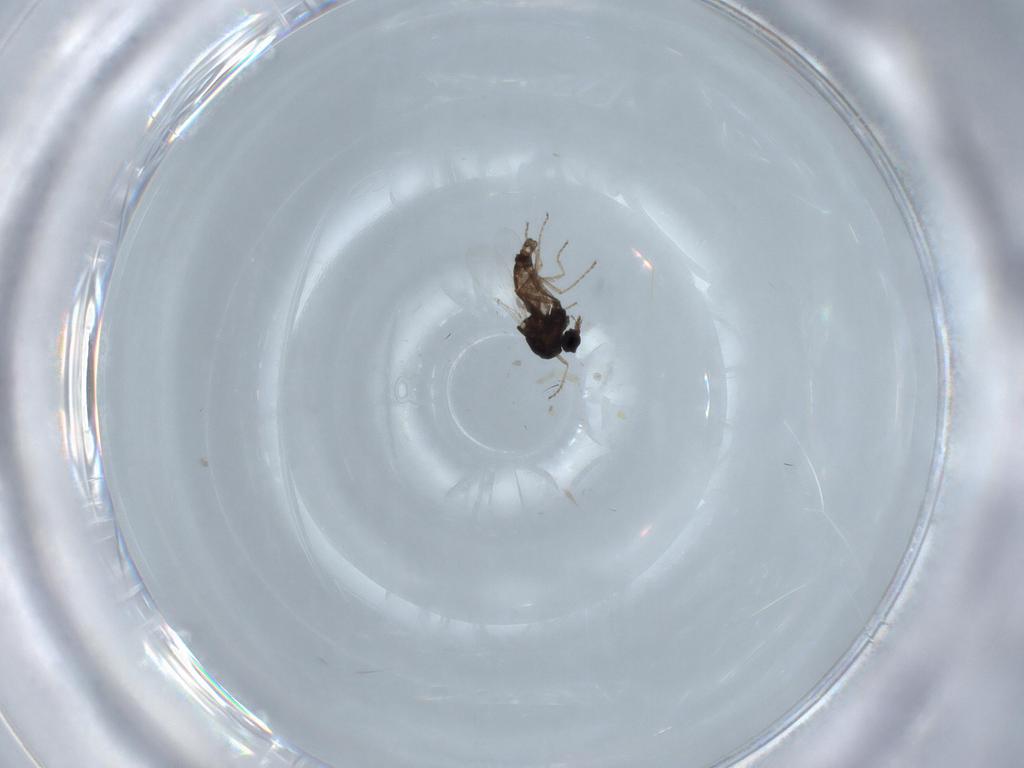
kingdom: Animalia
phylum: Arthropoda
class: Insecta
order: Diptera
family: Ceratopogonidae
